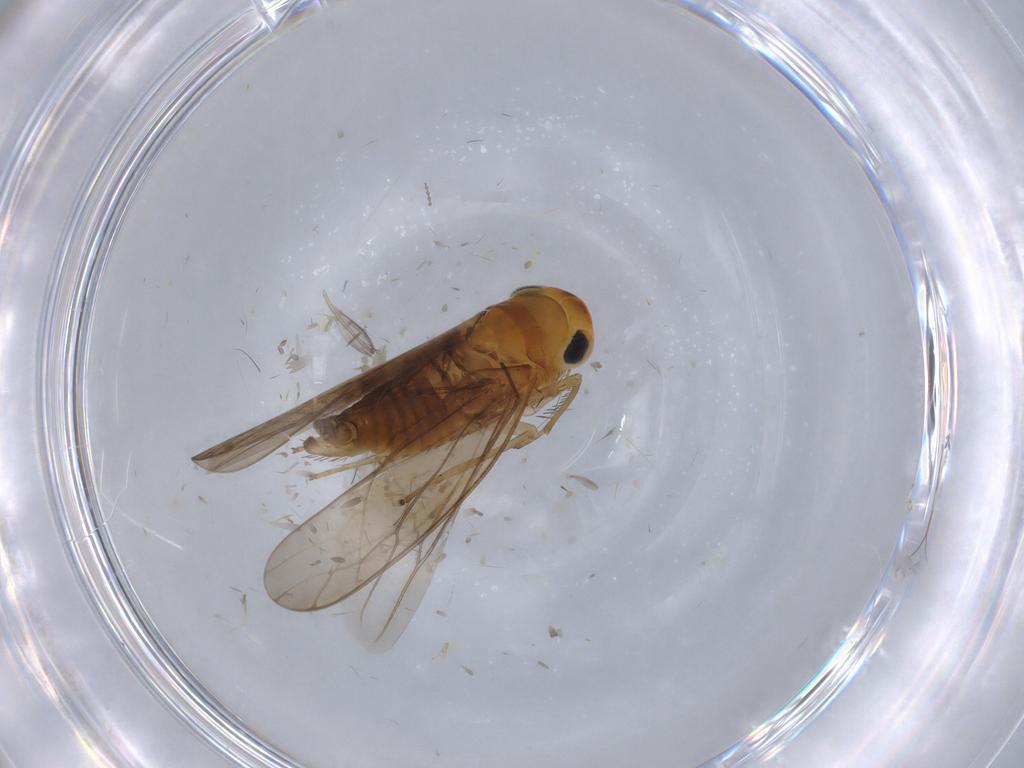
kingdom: Animalia
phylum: Arthropoda
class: Insecta
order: Hemiptera
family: Cicadellidae
